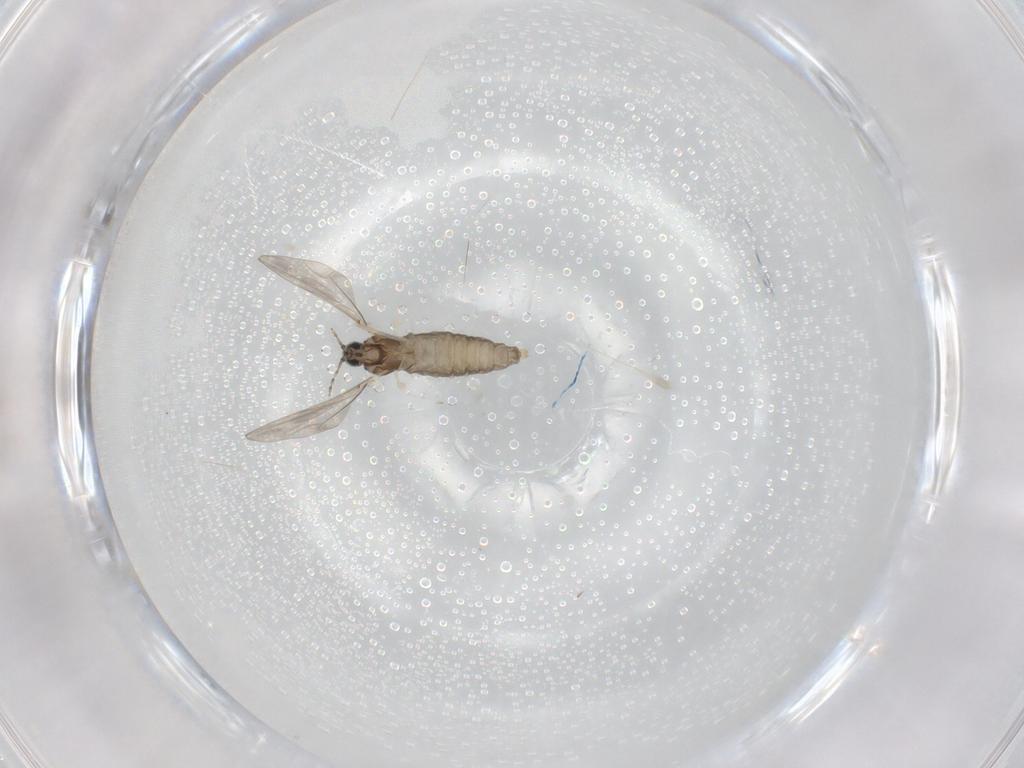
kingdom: Animalia
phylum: Arthropoda
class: Insecta
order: Diptera
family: Cecidomyiidae
